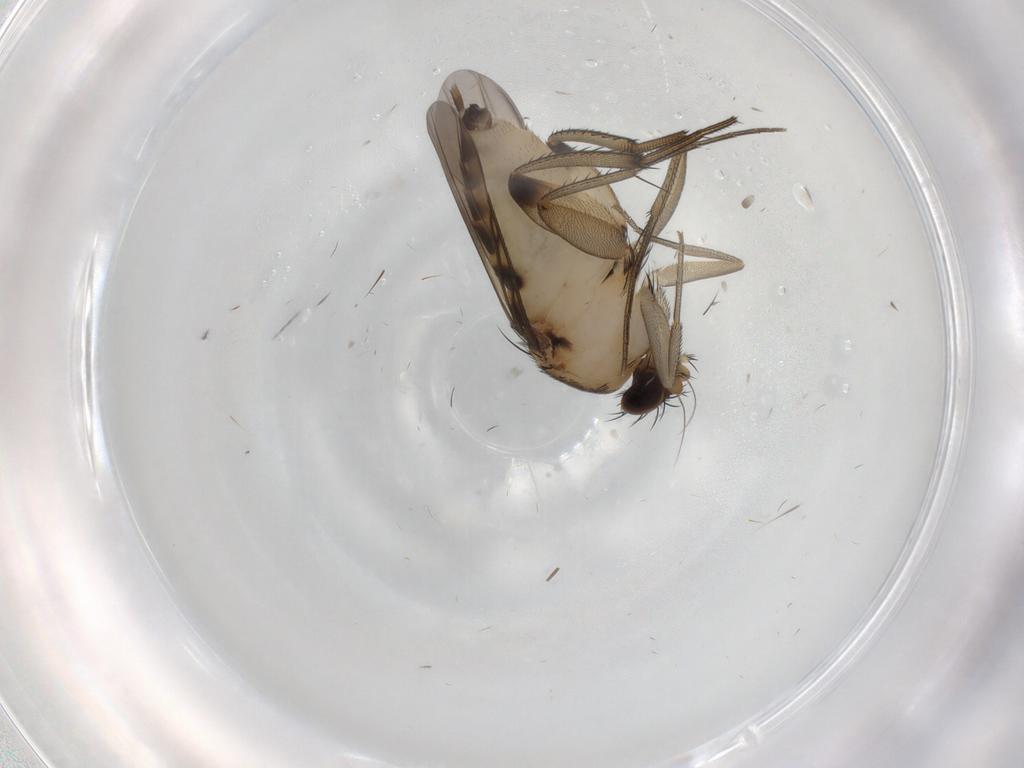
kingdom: Animalia
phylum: Arthropoda
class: Insecta
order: Diptera
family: Phoridae
